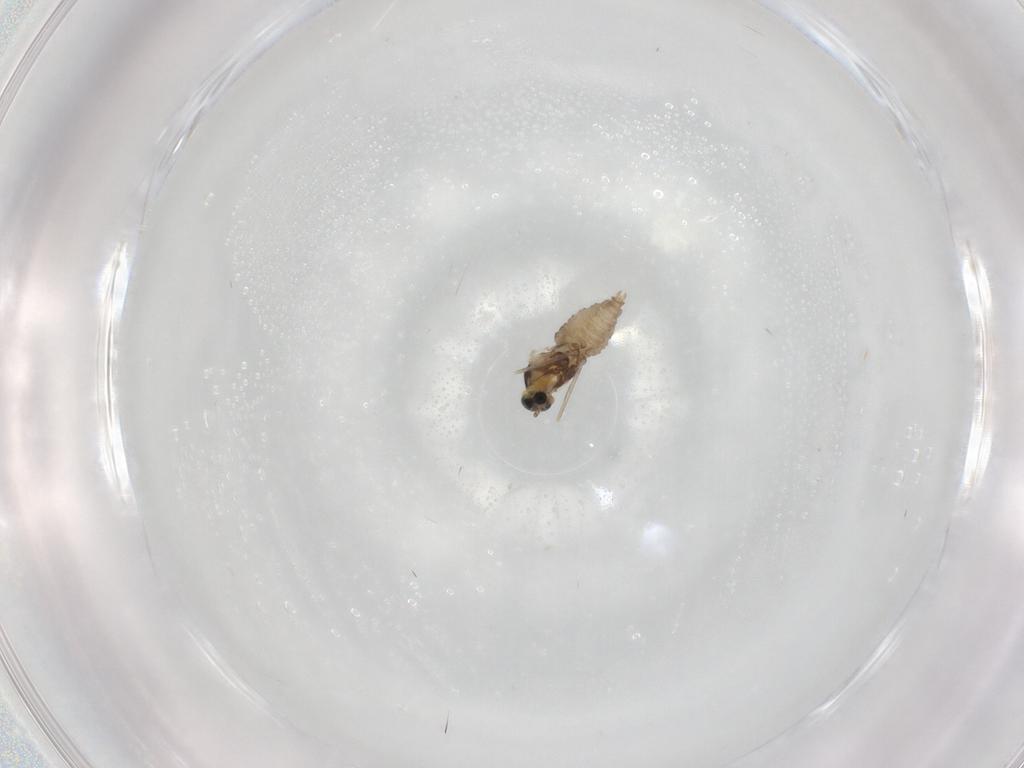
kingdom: Animalia
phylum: Arthropoda
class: Insecta
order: Diptera
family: Cecidomyiidae
